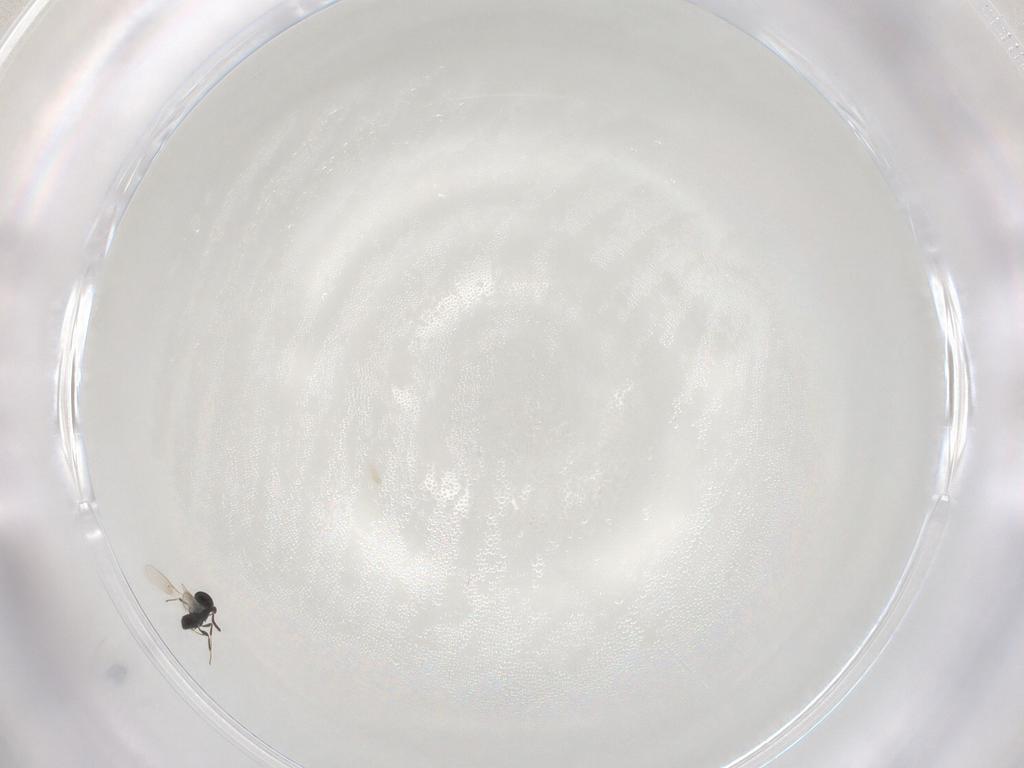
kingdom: Animalia
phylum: Arthropoda
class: Insecta
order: Hymenoptera
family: Scelionidae
